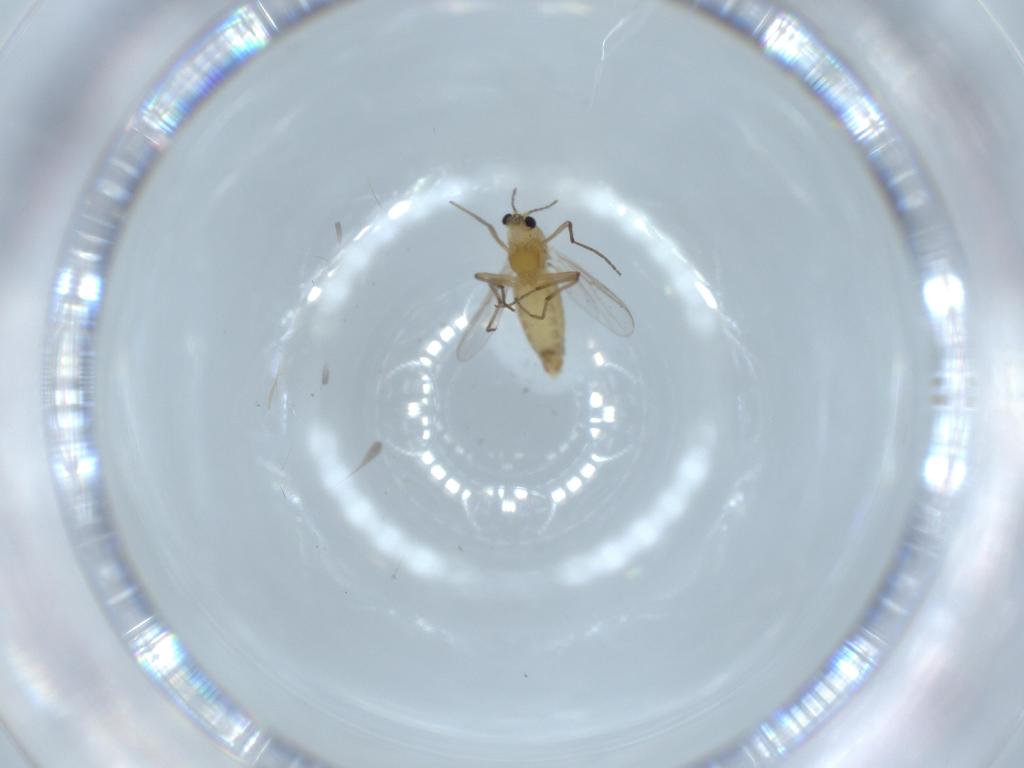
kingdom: Animalia
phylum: Arthropoda
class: Insecta
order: Diptera
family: Chironomidae
